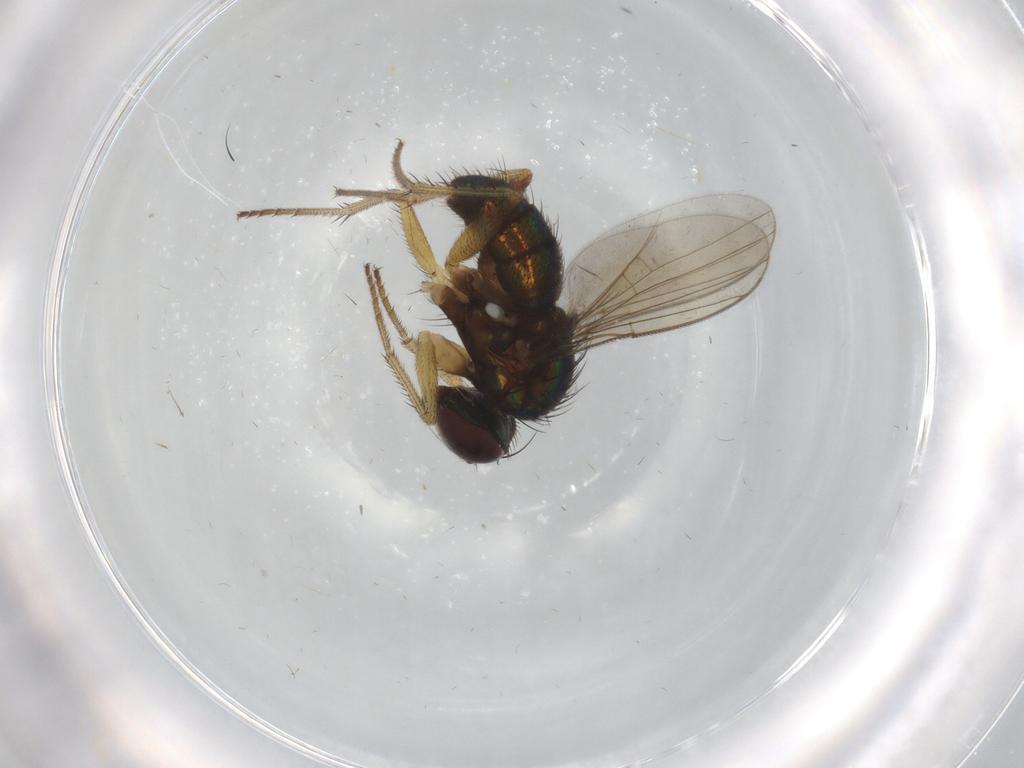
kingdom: Animalia
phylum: Arthropoda
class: Insecta
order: Diptera
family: Dolichopodidae
